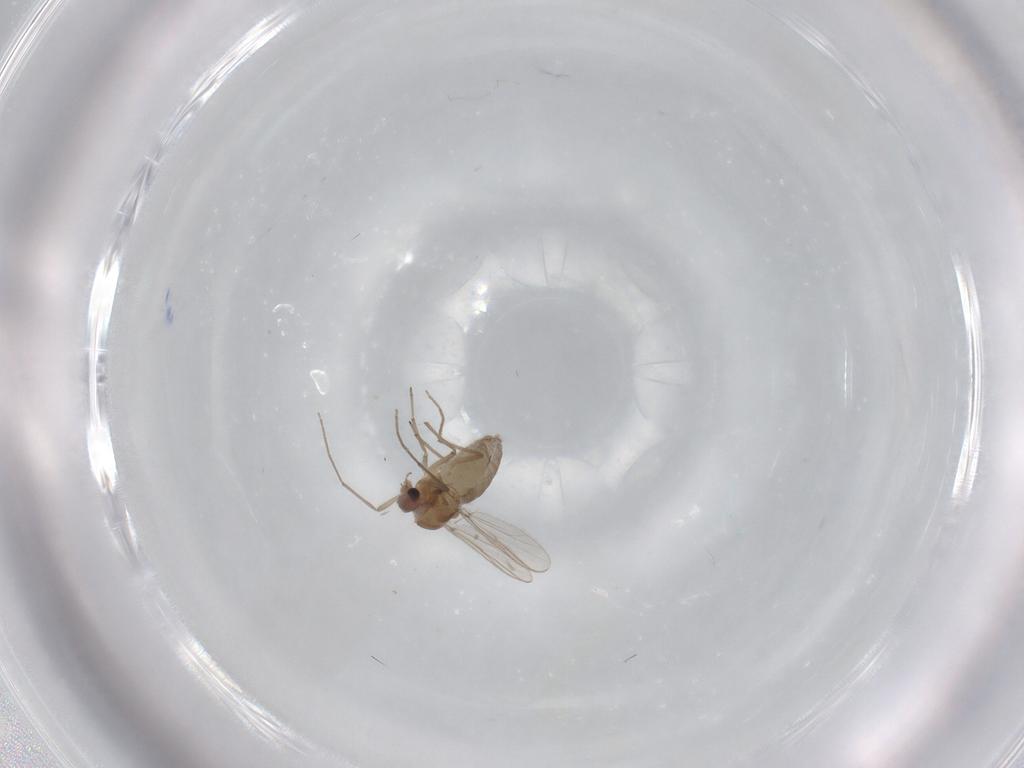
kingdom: Animalia
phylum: Arthropoda
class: Insecta
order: Diptera
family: Chironomidae
